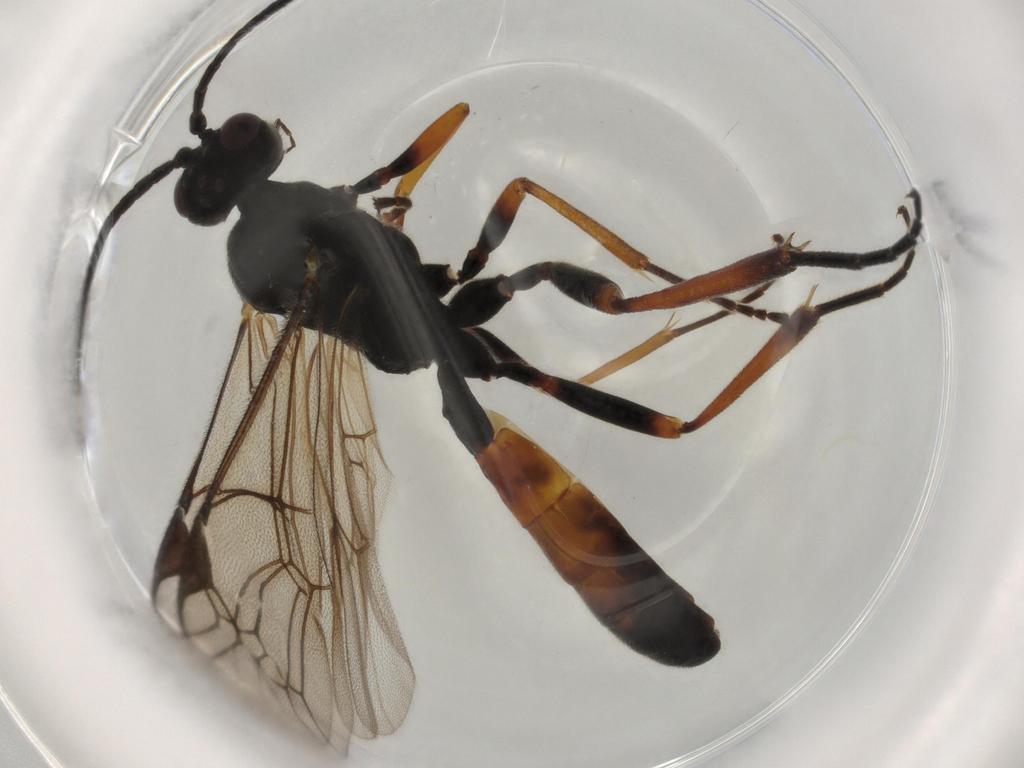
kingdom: Animalia
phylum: Arthropoda
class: Insecta
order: Hymenoptera
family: Ichneumonidae
